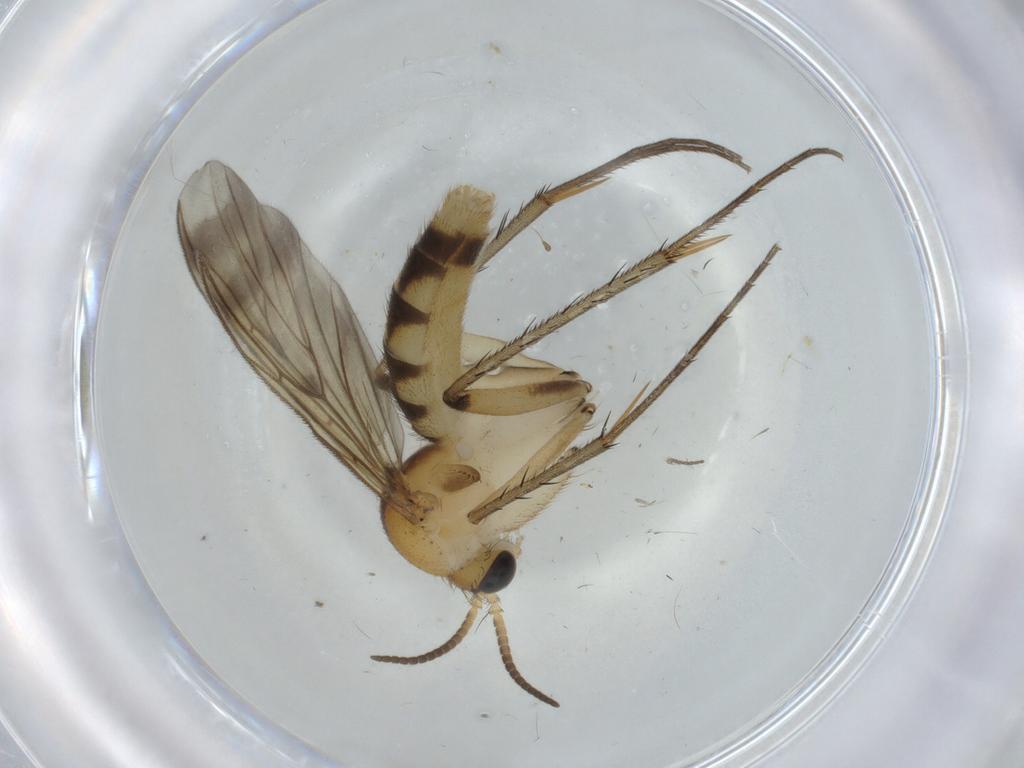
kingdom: Animalia
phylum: Arthropoda
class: Insecta
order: Diptera
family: Mycetophilidae
